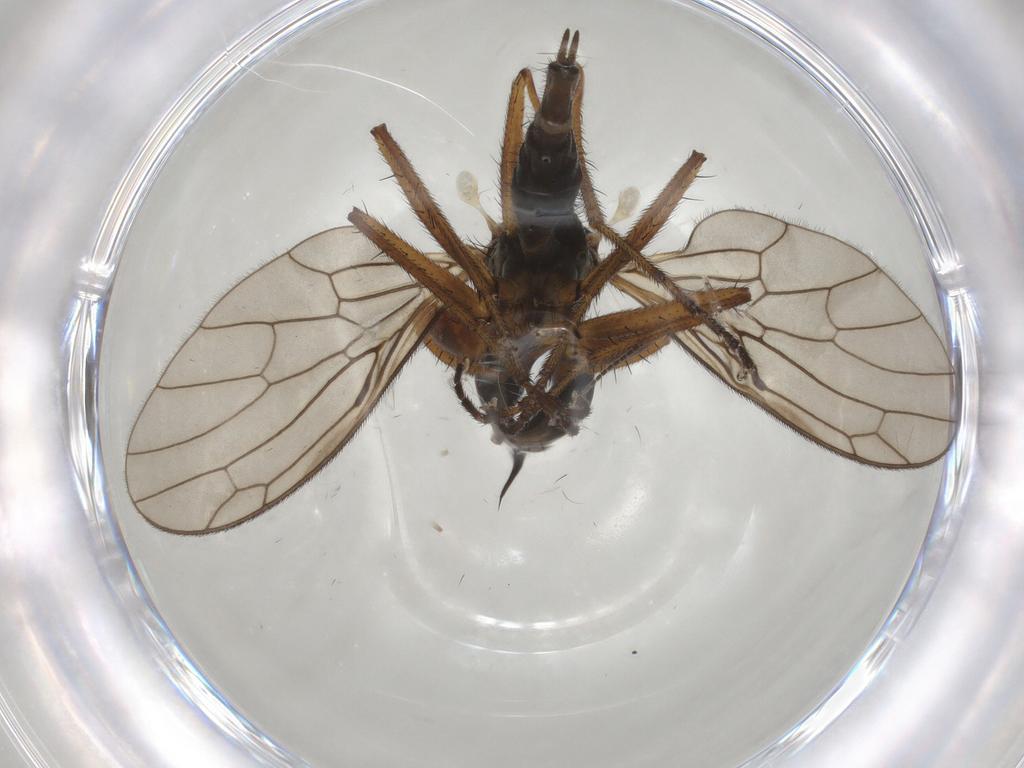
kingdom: Animalia
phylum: Arthropoda
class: Insecta
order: Diptera
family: Empididae
